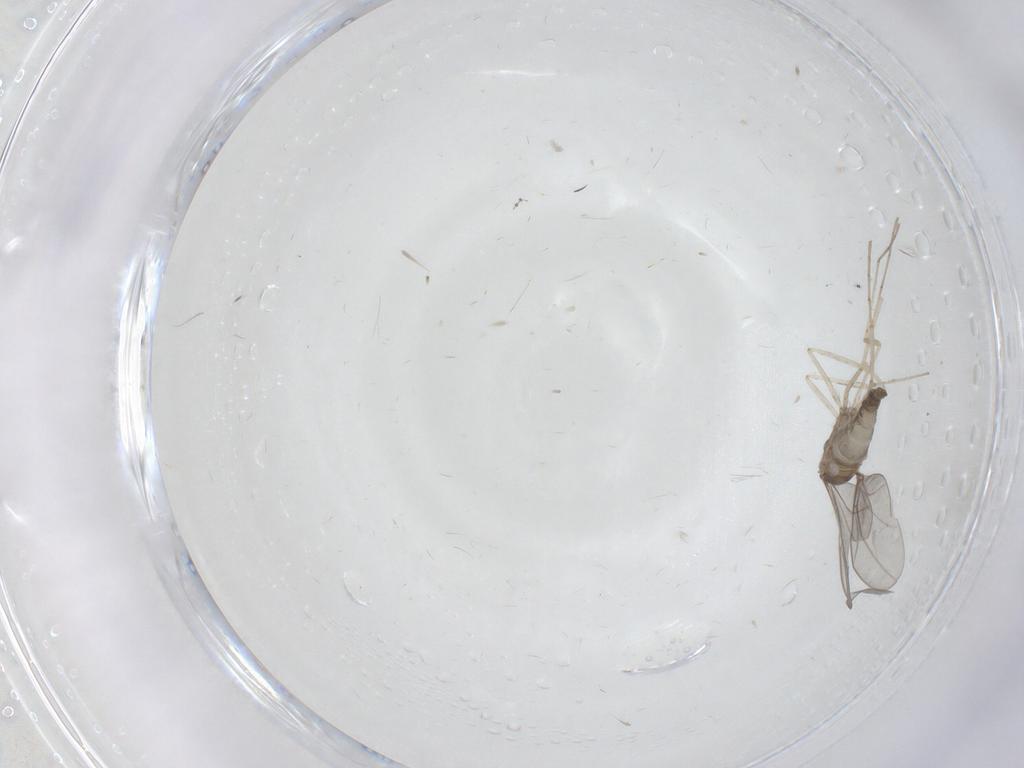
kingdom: Animalia
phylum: Arthropoda
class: Insecta
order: Diptera
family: Cecidomyiidae
